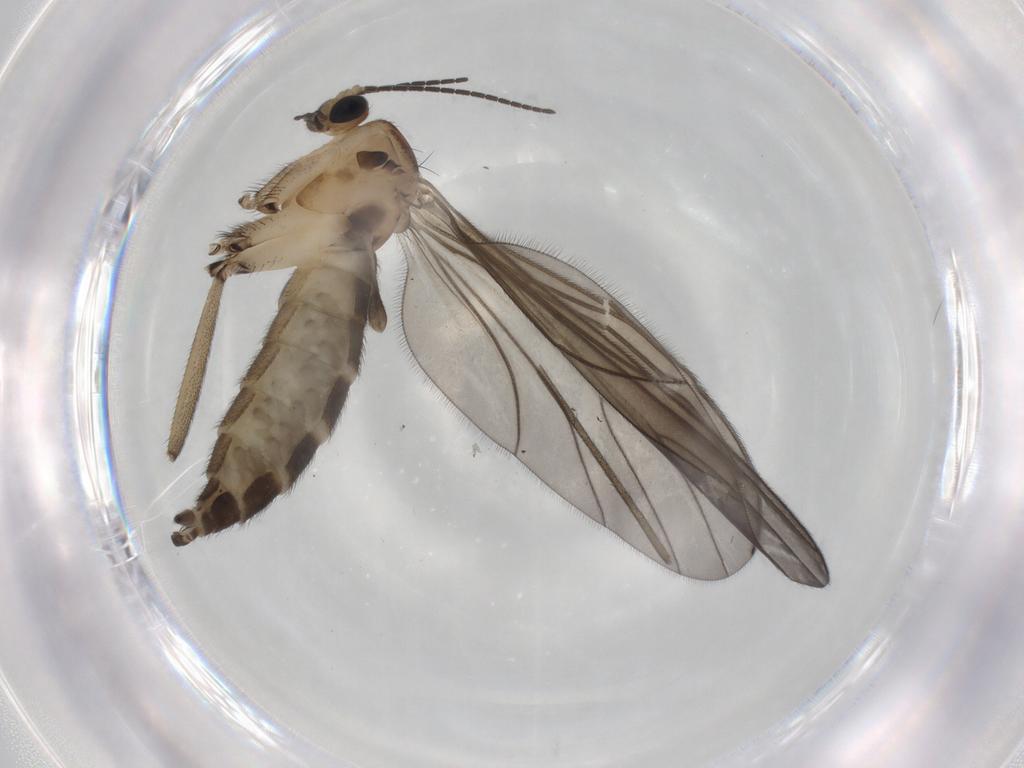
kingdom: Animalia
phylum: Arthropoda
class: Insecta
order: Diptera
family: Sciaridae
